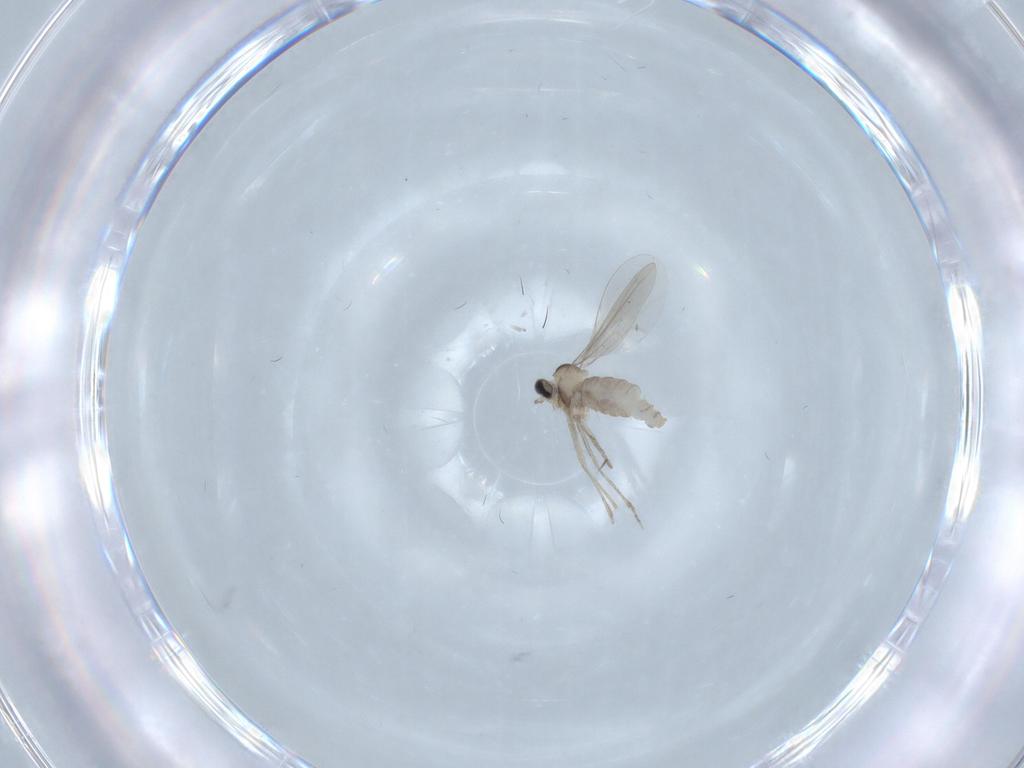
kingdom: Animalia
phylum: Arthropoda
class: Insecta
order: Diptera
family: Cecidomyiidae
